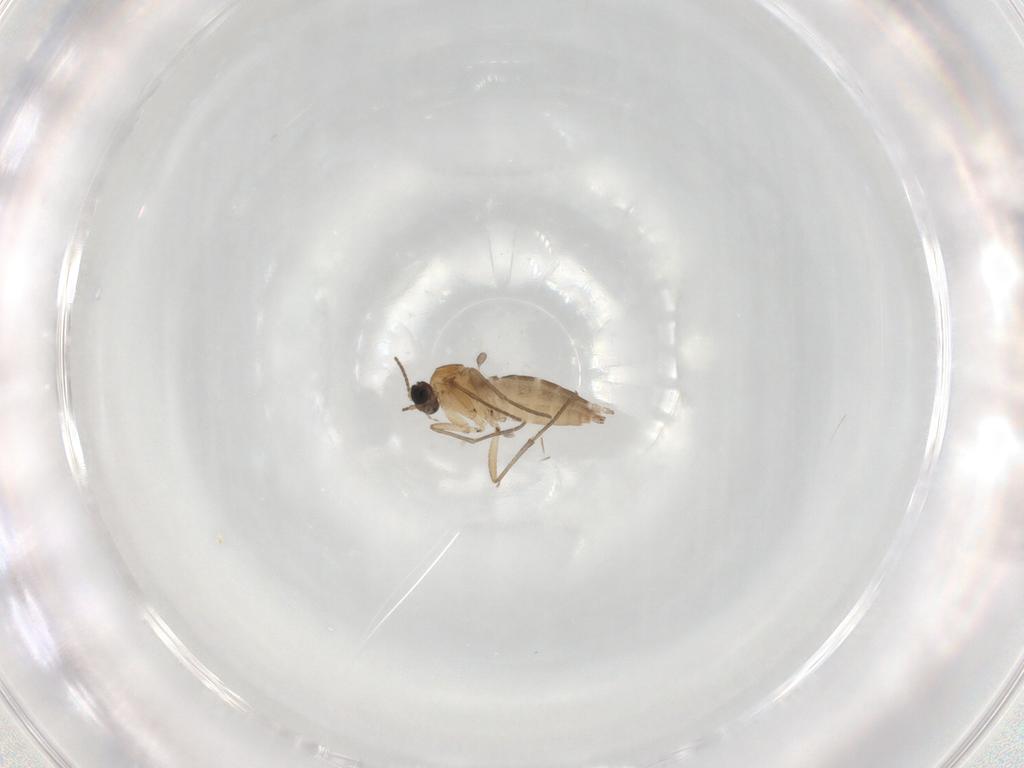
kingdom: Animalia
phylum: Arthropoda
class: Insecta
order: Diptera
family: Sciaridae
